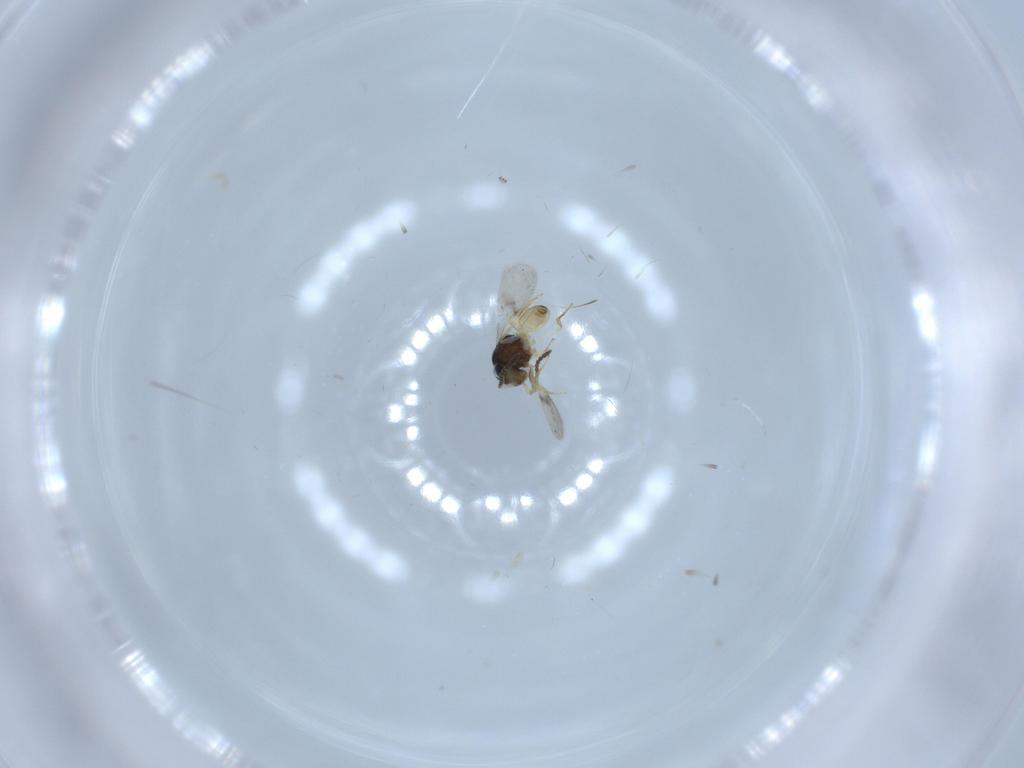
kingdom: Animalia
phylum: Arthropoda
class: Insecta
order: Hymenoptera
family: Scelionidae
